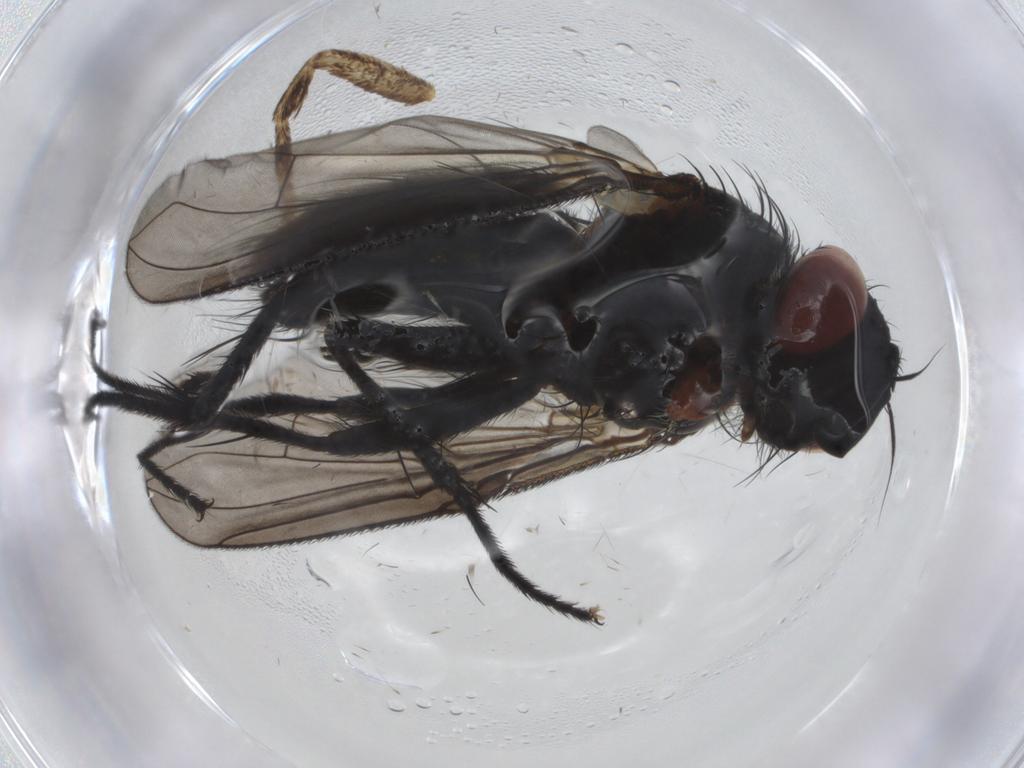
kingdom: Animalia
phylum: Arthropoda
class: Insecta
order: Diptera
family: Tachinidae
